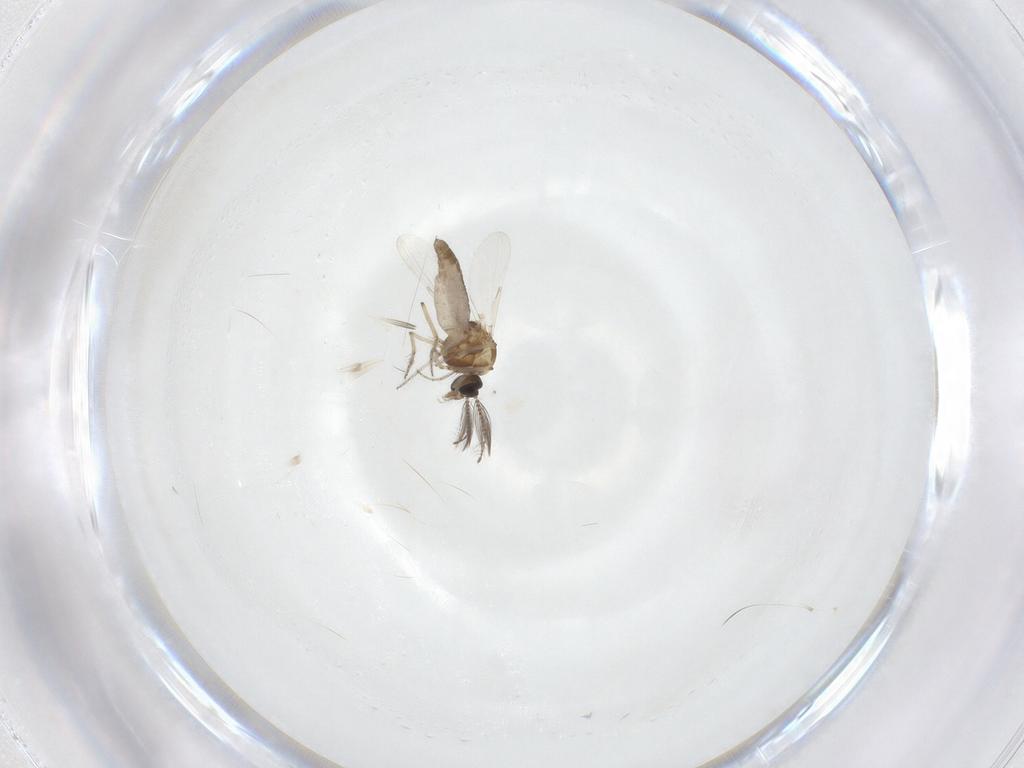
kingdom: Animalia
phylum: Arthropoda
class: Insecta
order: Diptera
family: Ceratopogonidae
